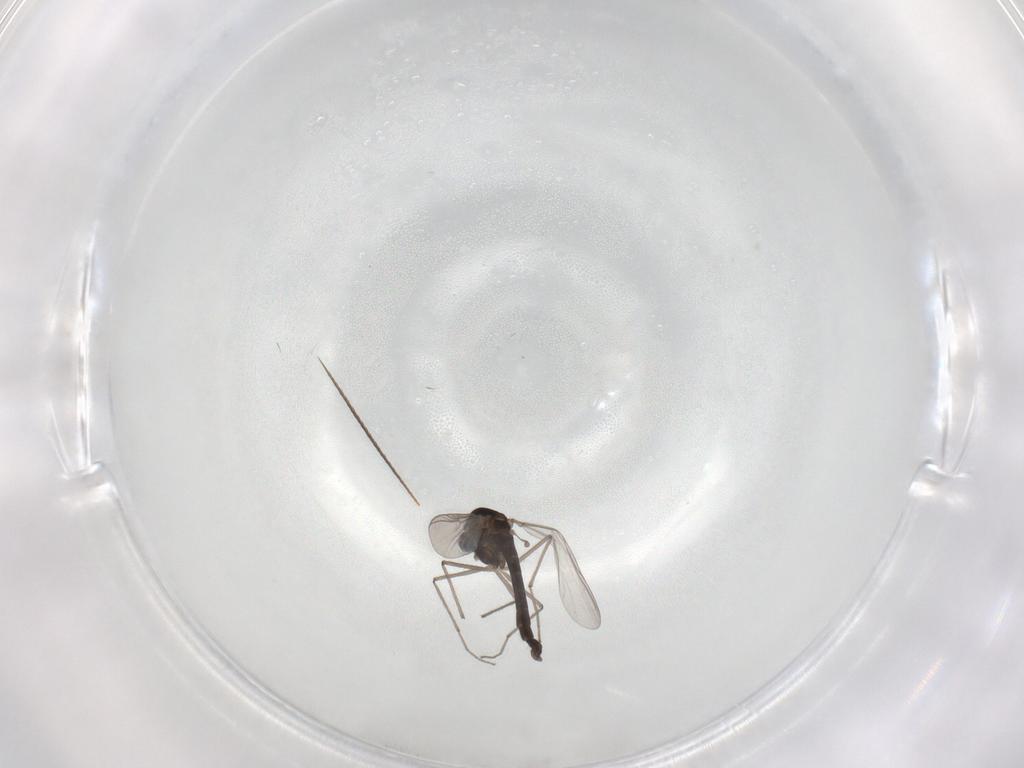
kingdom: Animalia
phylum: Arthropoda
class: Insecta
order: Diptera
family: Chironomidae
